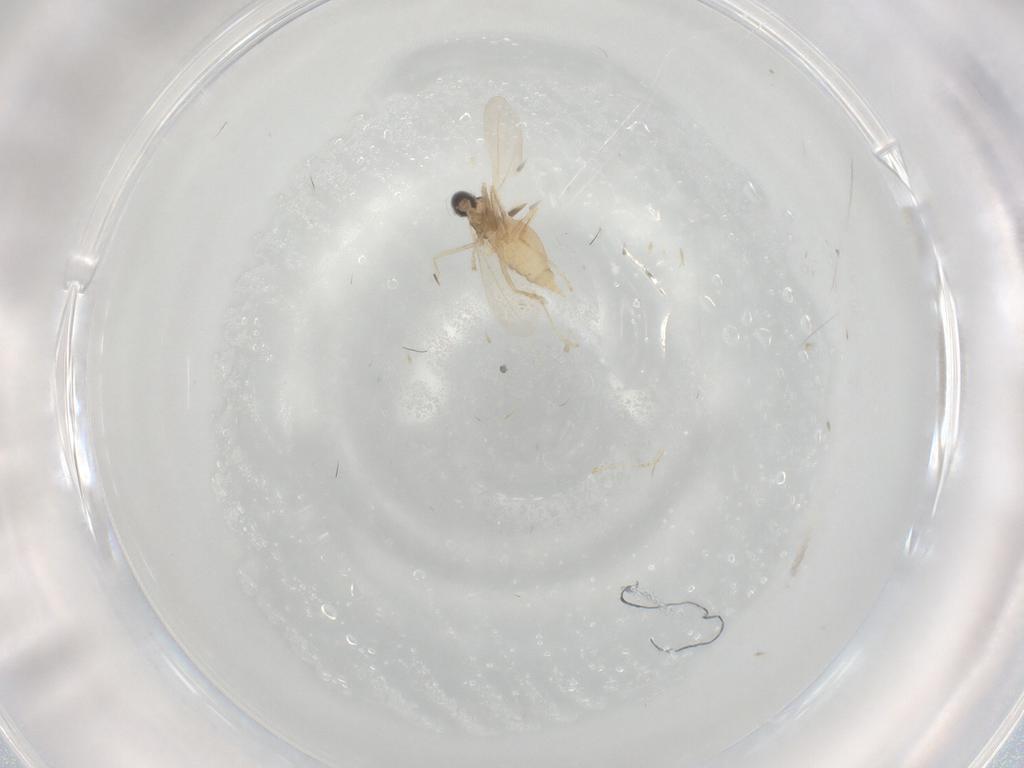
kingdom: Animalia
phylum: Arthropoda
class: Insecta
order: Diptera
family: Cecidomyiidae
